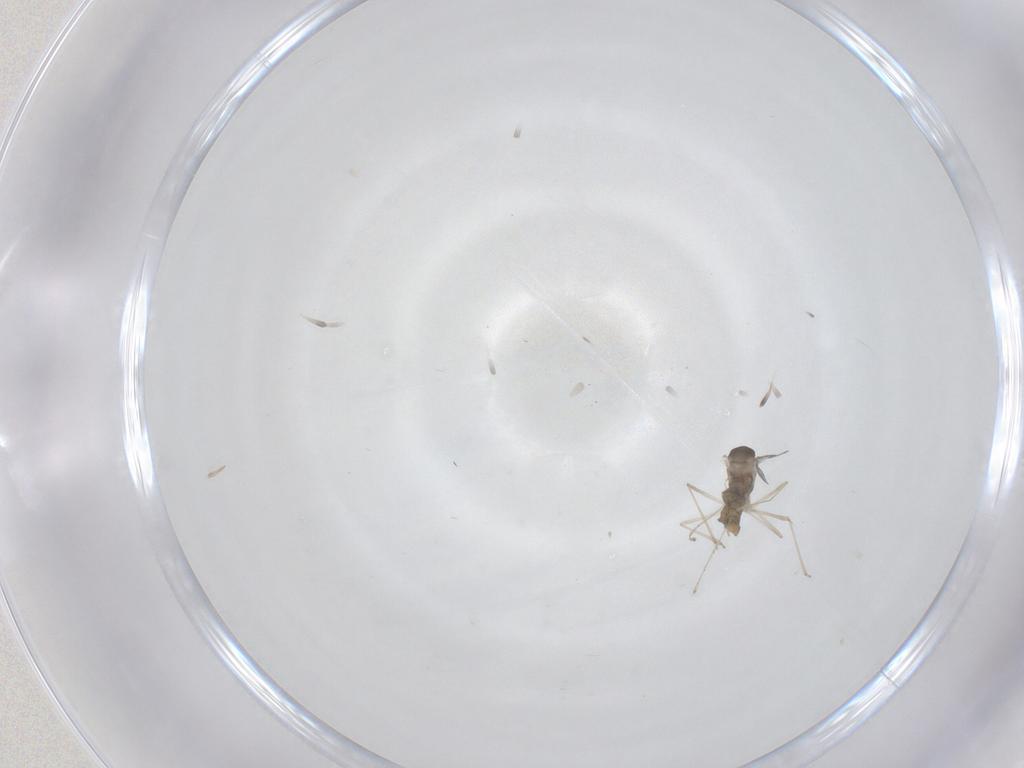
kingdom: Animalia
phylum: Arthropoda
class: Insecta
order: Diptera
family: Cecidomyiidae
